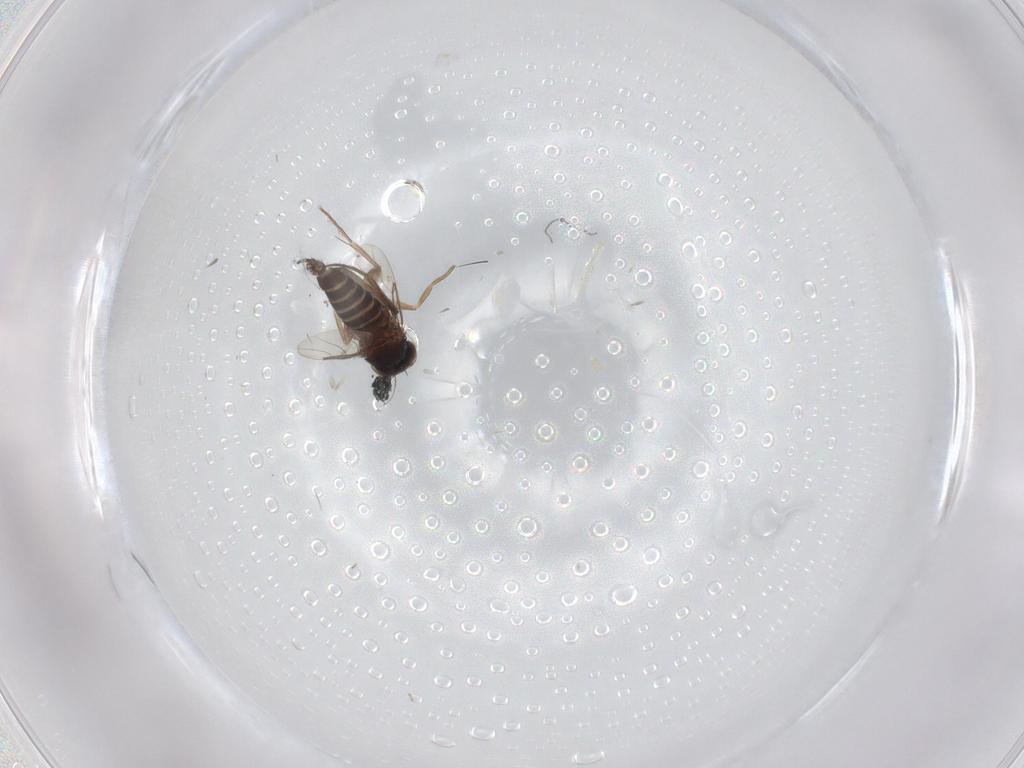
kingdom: Animalia
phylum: Arthropoda
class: Insecta
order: Diptera
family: Phoridae
